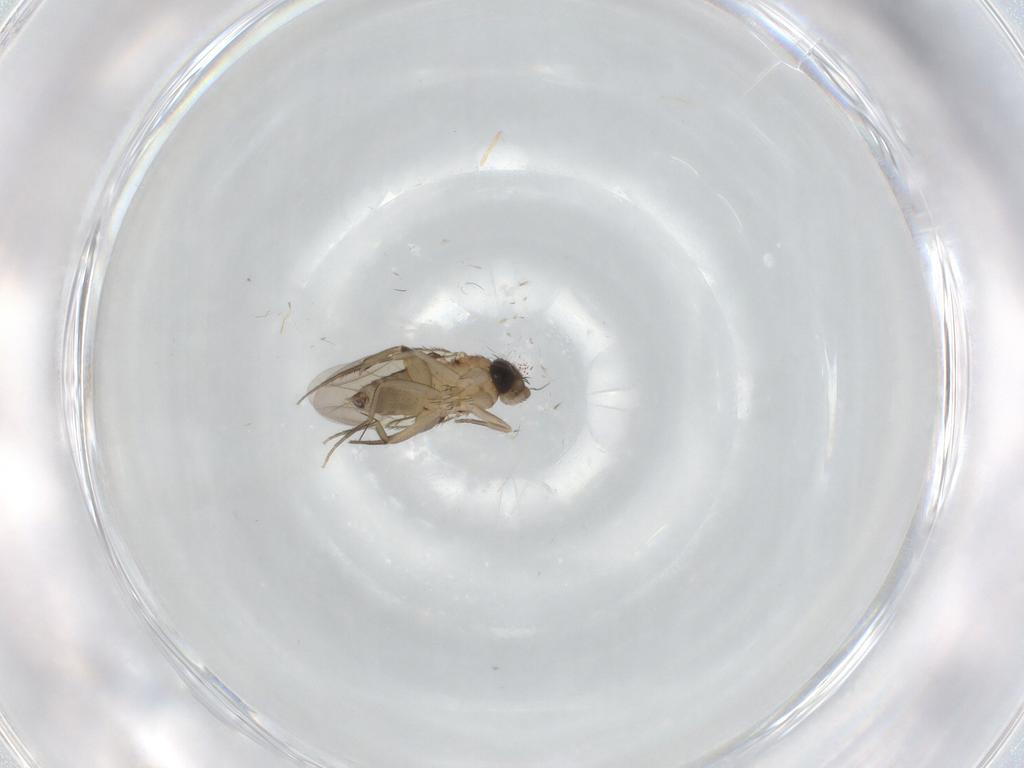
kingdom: Animalia
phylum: Arthropoda
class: Insecta
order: Diptera
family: Phoridae
